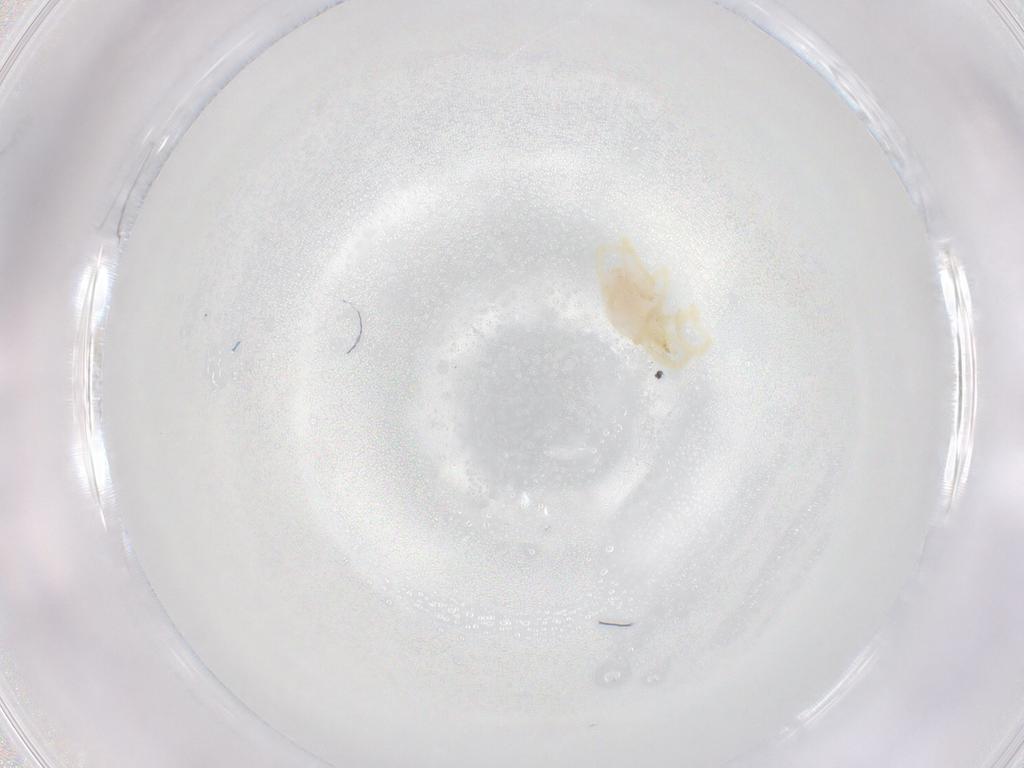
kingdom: Animalia
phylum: Arthropoda
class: Arachnida
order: Trombidiformes
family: Erythraeidae
